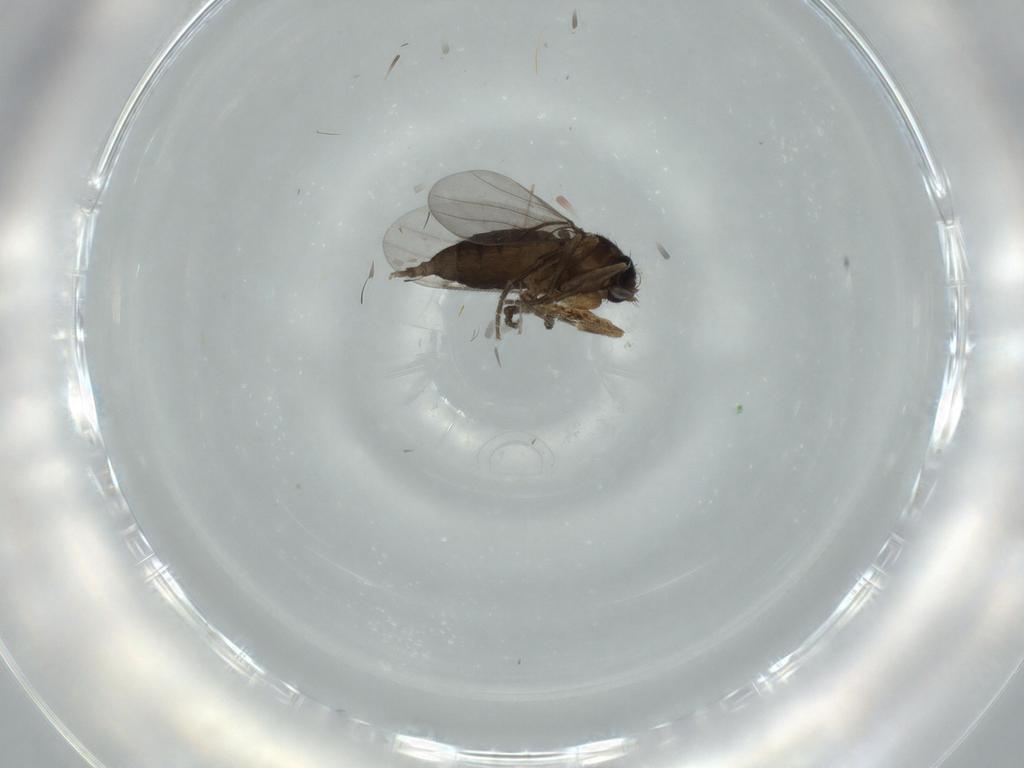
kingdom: Animalia
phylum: Arthropoda
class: Insecta
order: Diptera
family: Cecidomyiidae
